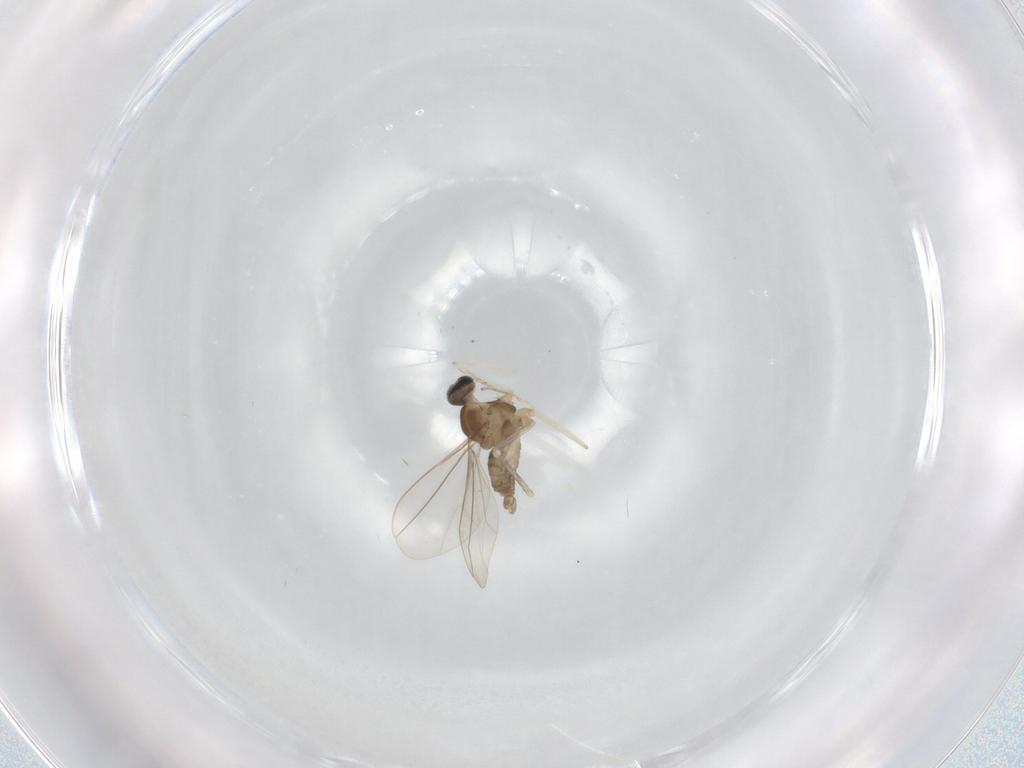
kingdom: Animalia
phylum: Arthropoda
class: Insecta
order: Diptera
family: Cecidomyiidae
